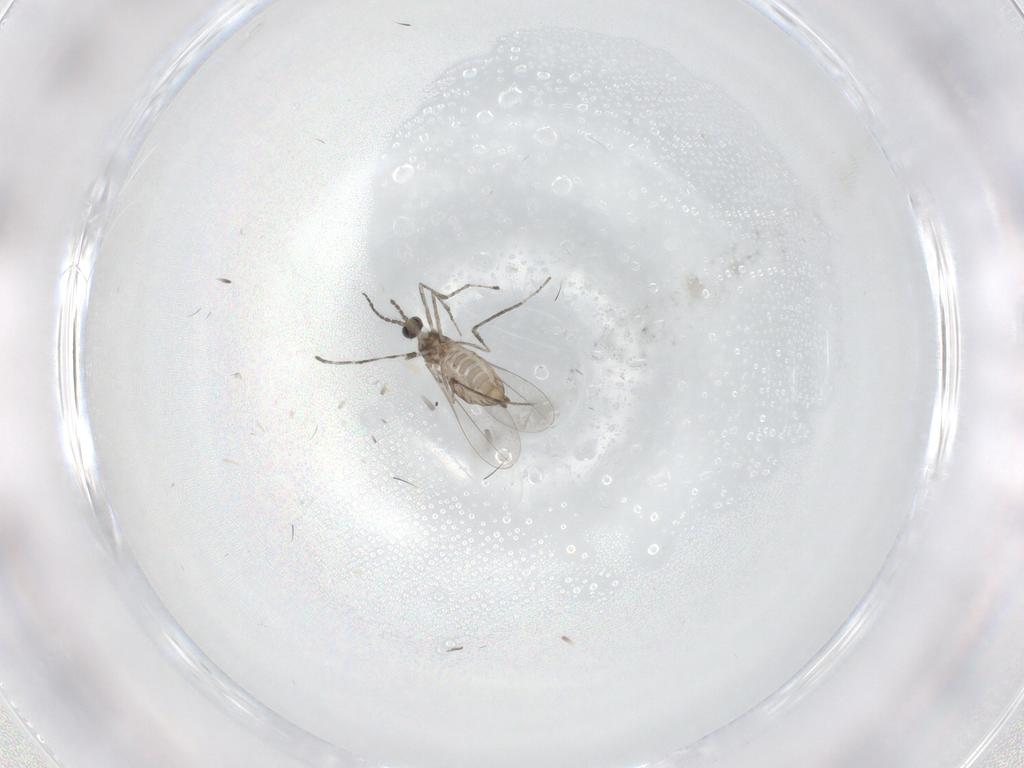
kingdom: Animalia
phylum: Arthropoda
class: Insecta
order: Diptera
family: Cecidomyiidae
